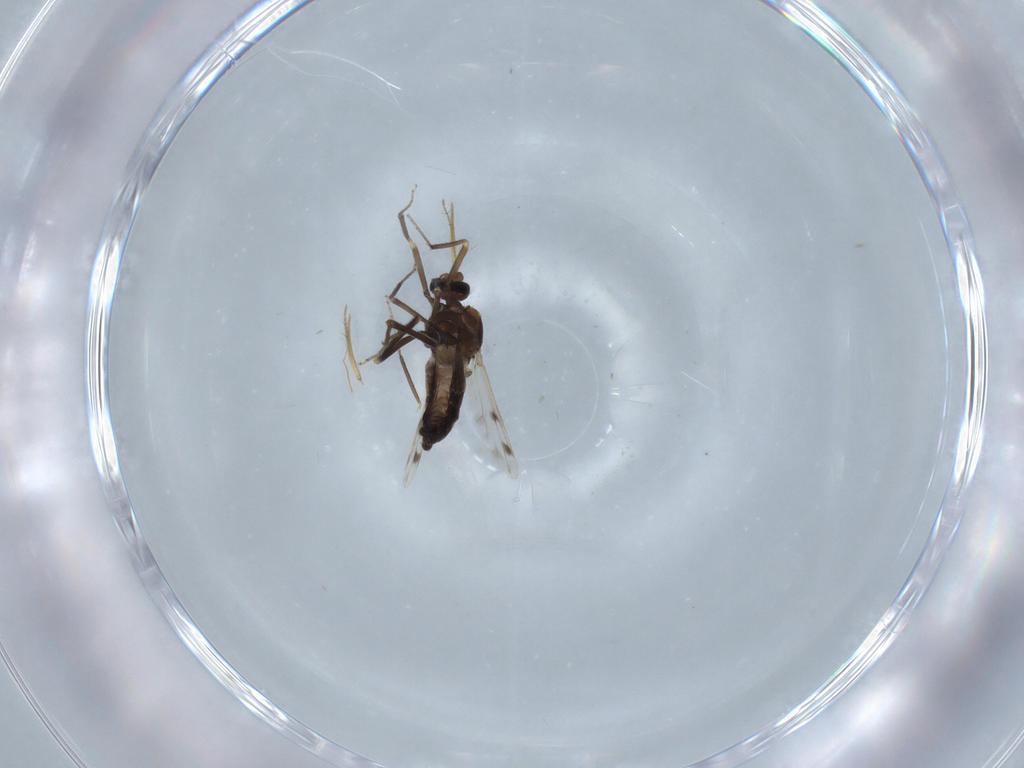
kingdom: Animalia
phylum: Arthropoda
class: Insecta
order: Diptera
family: Ceratopogonidae
